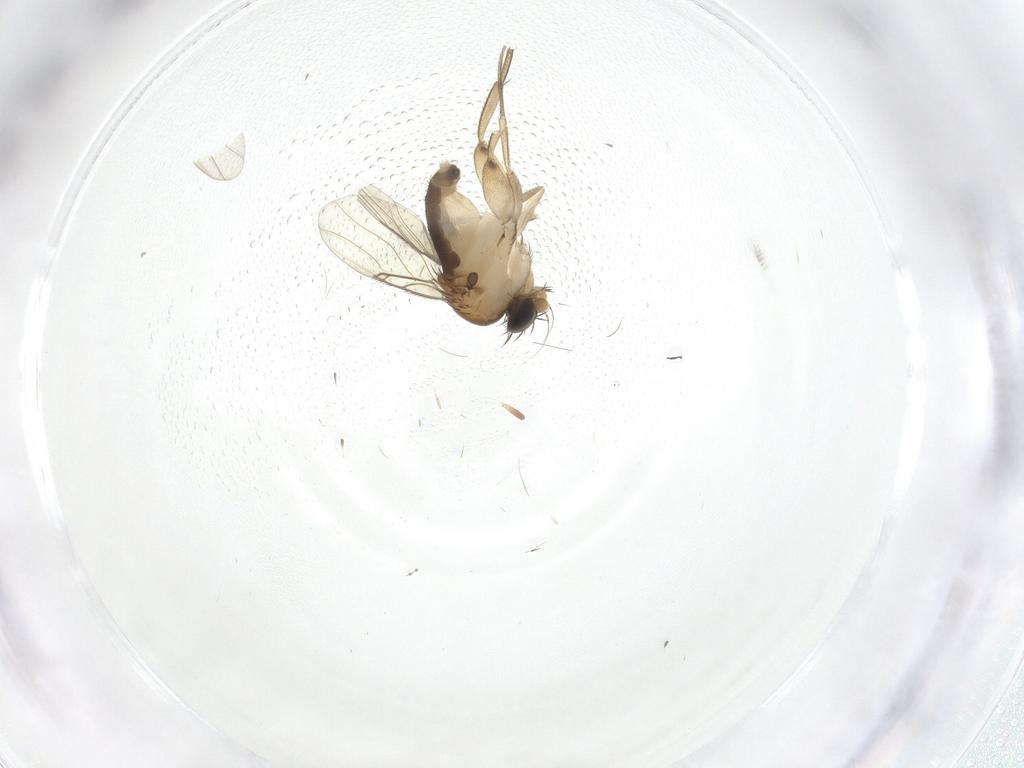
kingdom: Animalia
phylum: Arthropoda
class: Insecta
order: Diptera
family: Phoridae
